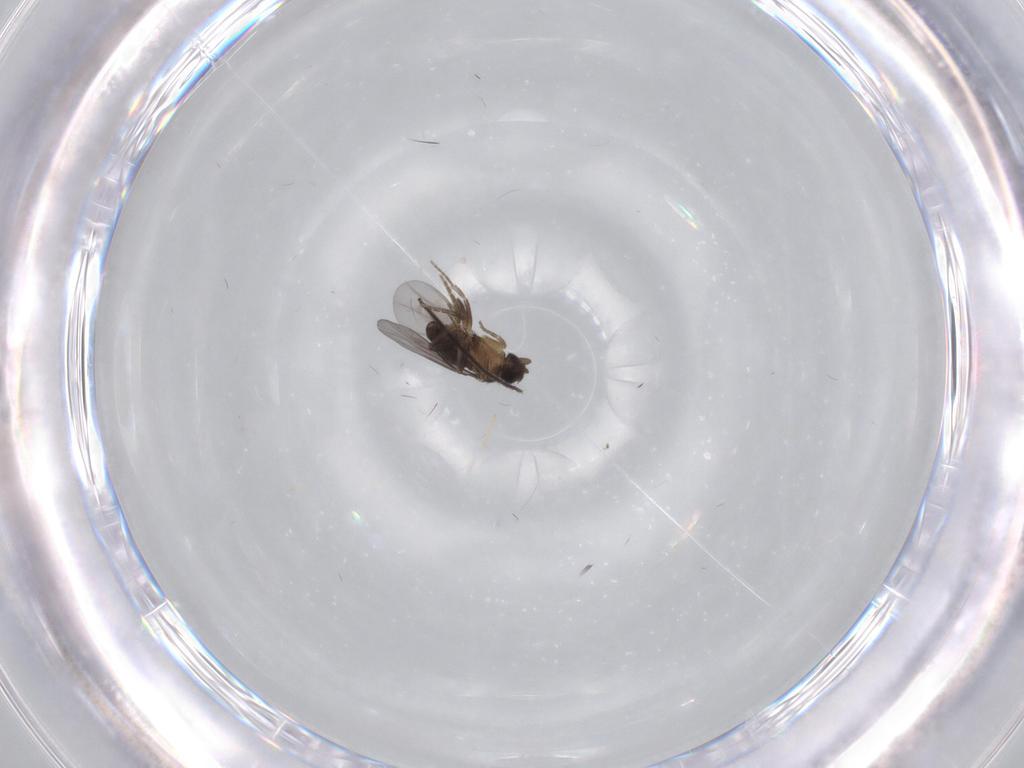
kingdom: Animalia
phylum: Arthropoda
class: Insecta
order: Diptera
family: Chironomidae
